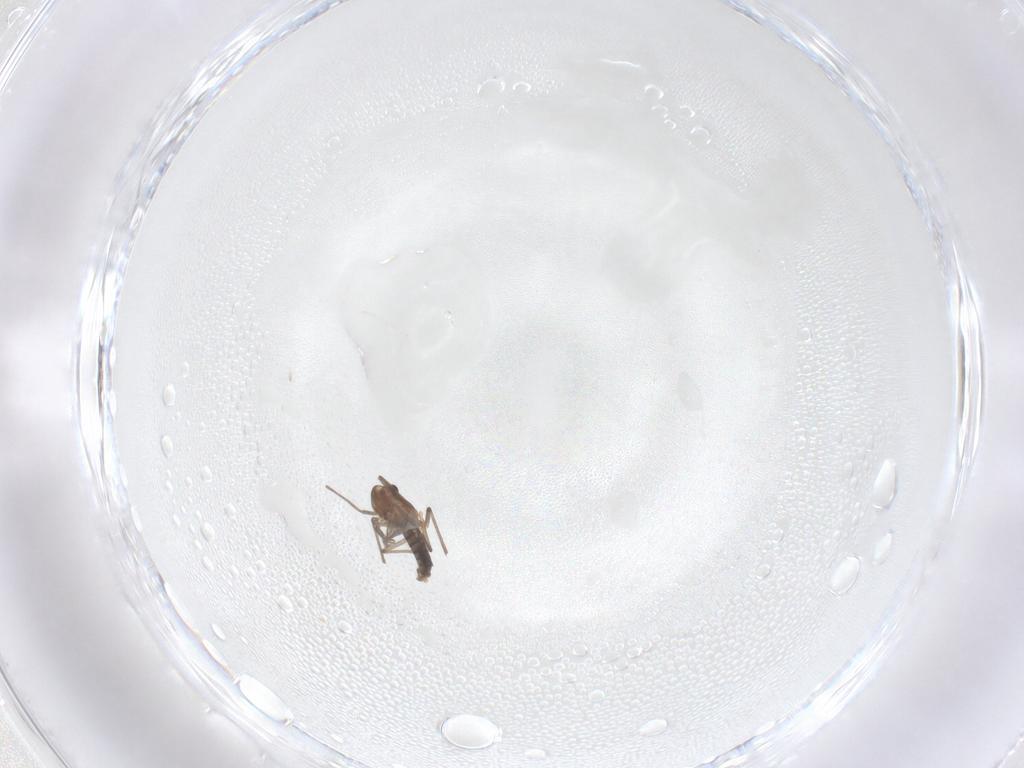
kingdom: Animalia
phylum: Arthropoda
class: Insecta
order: Diptera
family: Chironomidae
